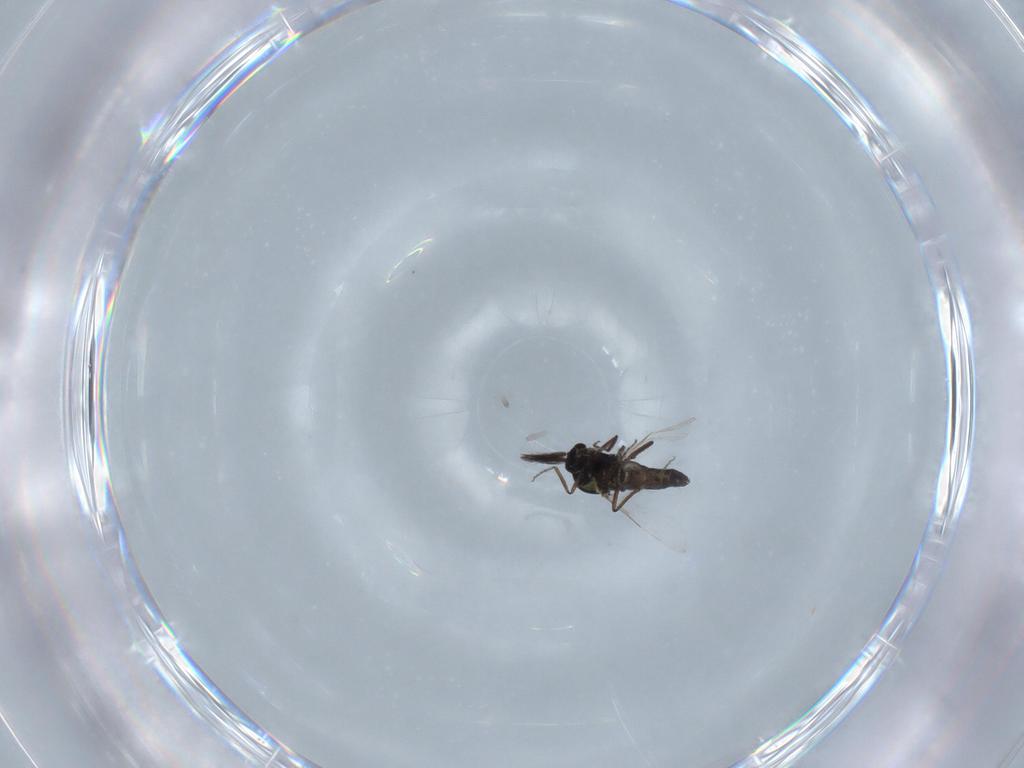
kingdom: Animalia
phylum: Arthropoda
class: Insecta
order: Diptera
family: Ceratopogonidae
